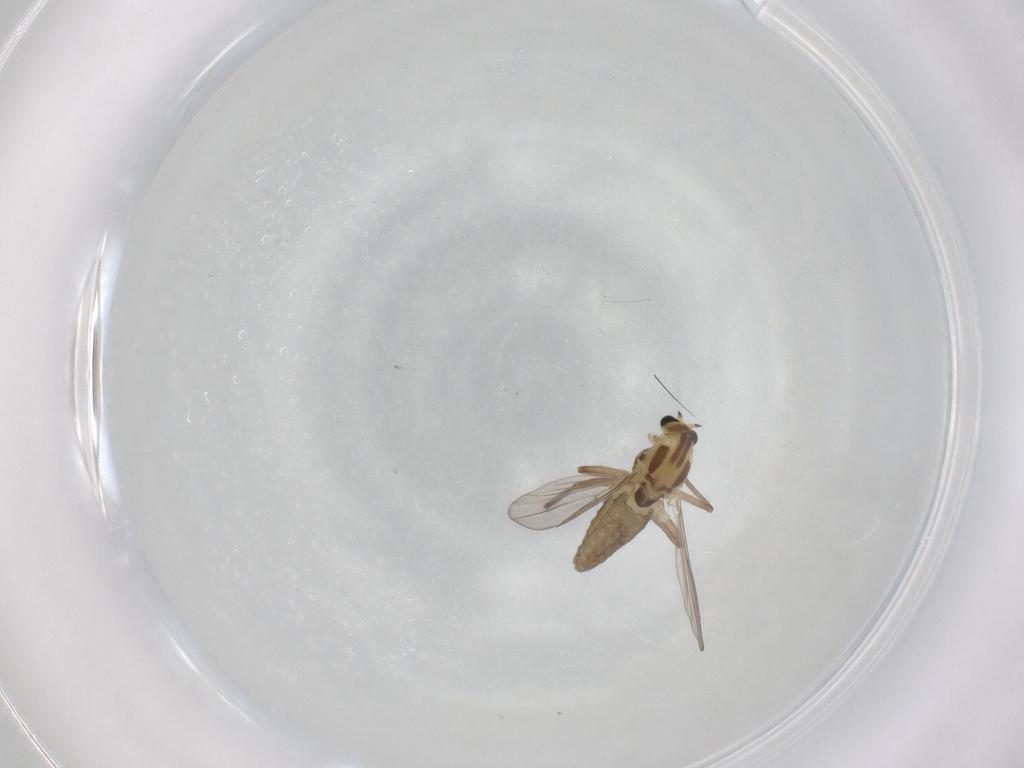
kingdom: Animalia
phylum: Arthropoda
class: Insecta
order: Diptera
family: Chironomidae
